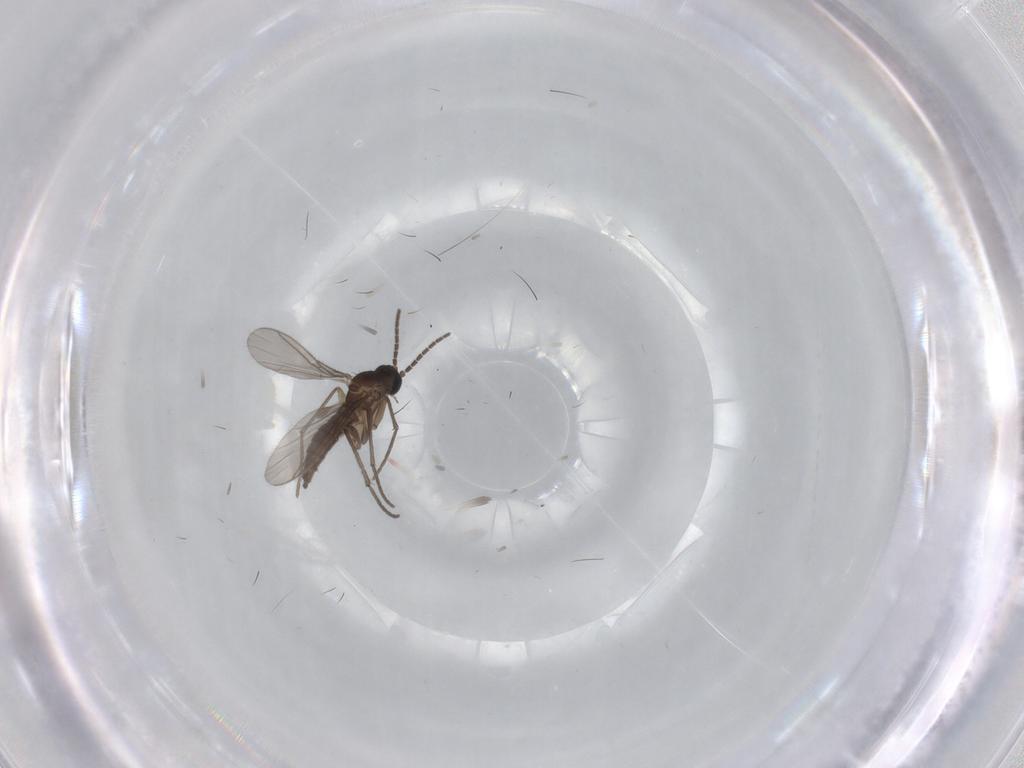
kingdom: Animalia
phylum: Arthropoda
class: Insecta
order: Diptera
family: Sciaridae
